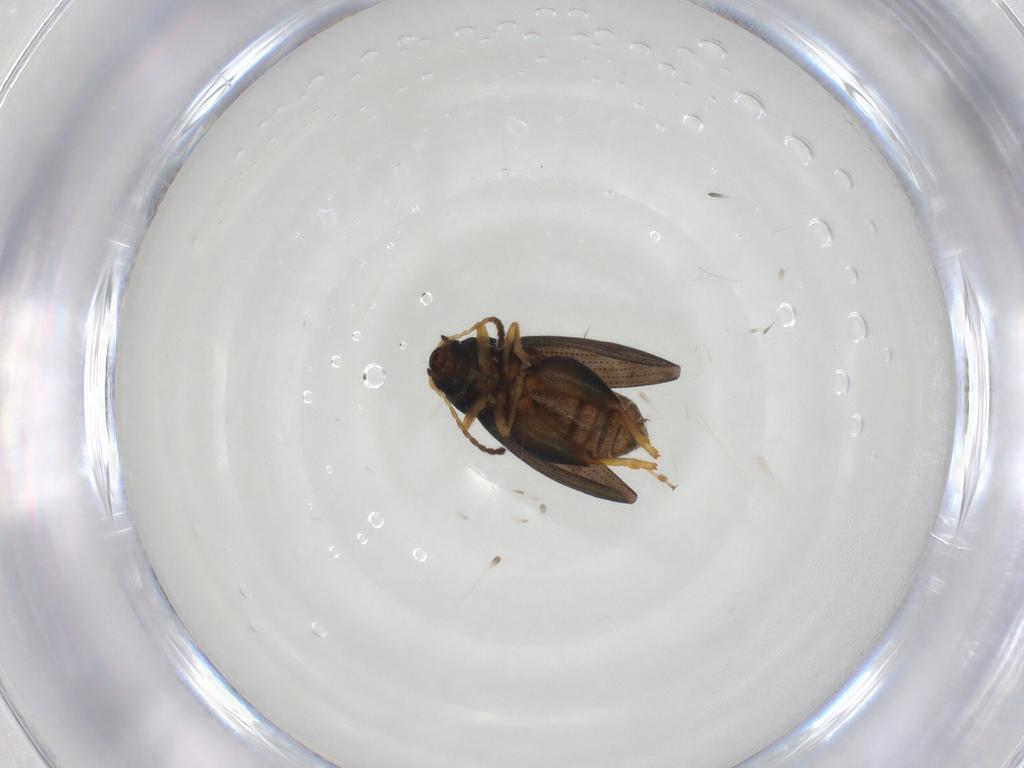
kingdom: Animalia
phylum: Arthropoda
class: Insecta
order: Coleoptera
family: Chrysomelidae
